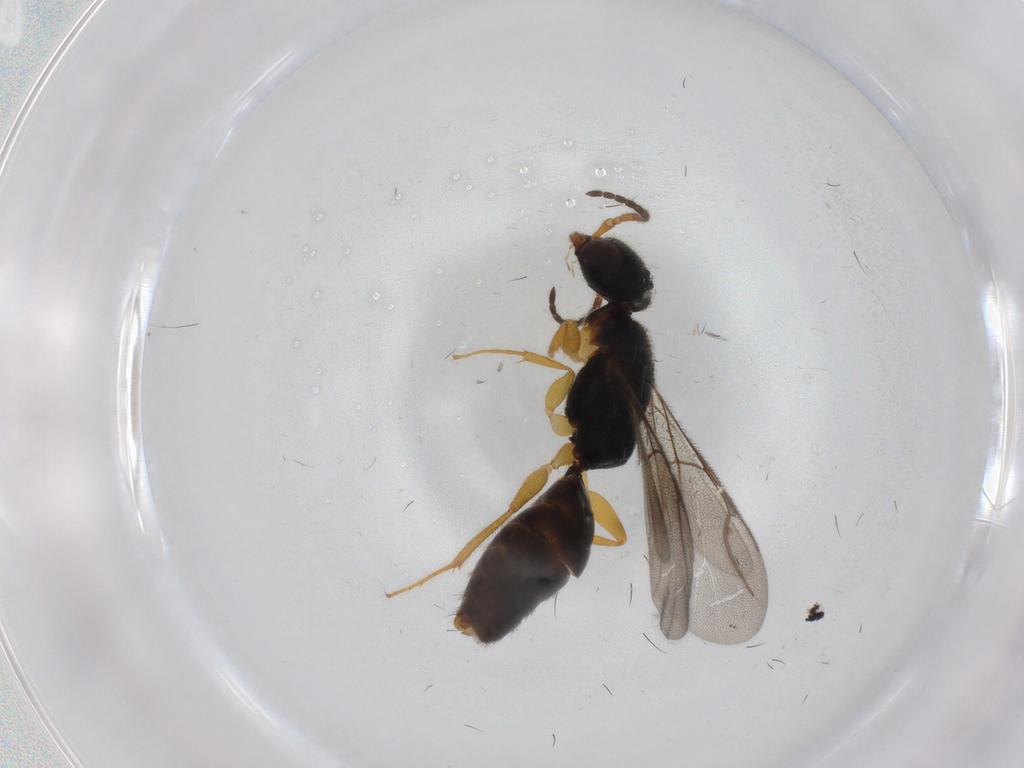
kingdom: Animalia
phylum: Arthropoda
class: Insecta
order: Hymenoptera
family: Bethylidae
